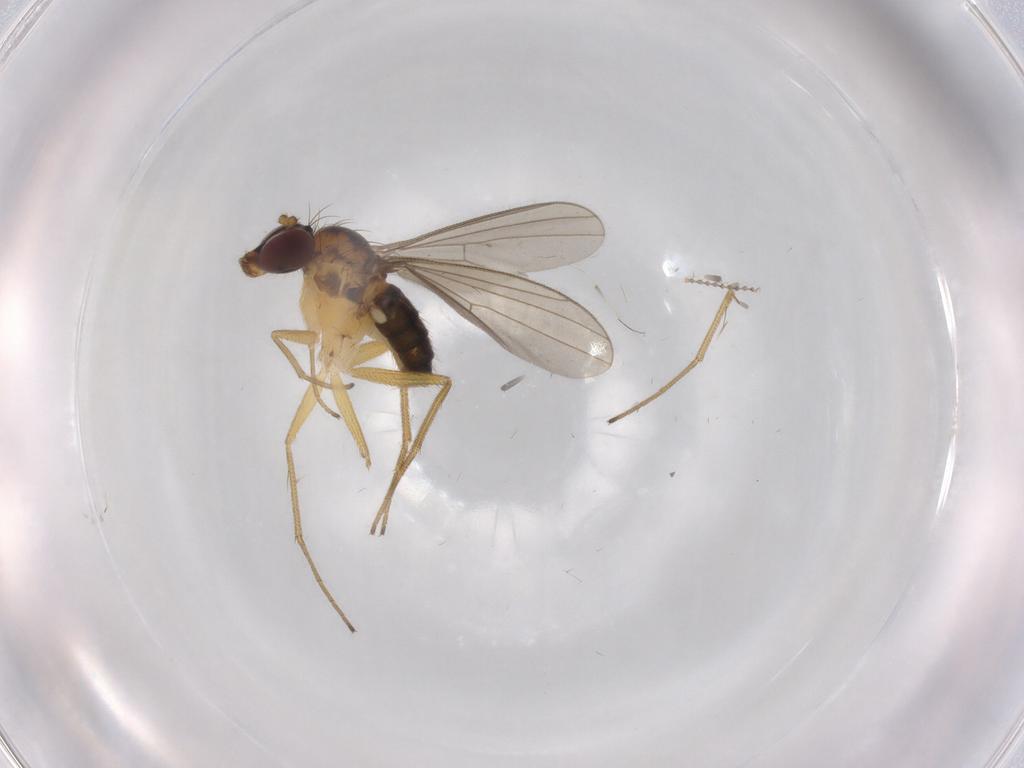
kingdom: Animalia
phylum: Arthropoda
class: Insecta
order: Diptera
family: Dolichopodidae
